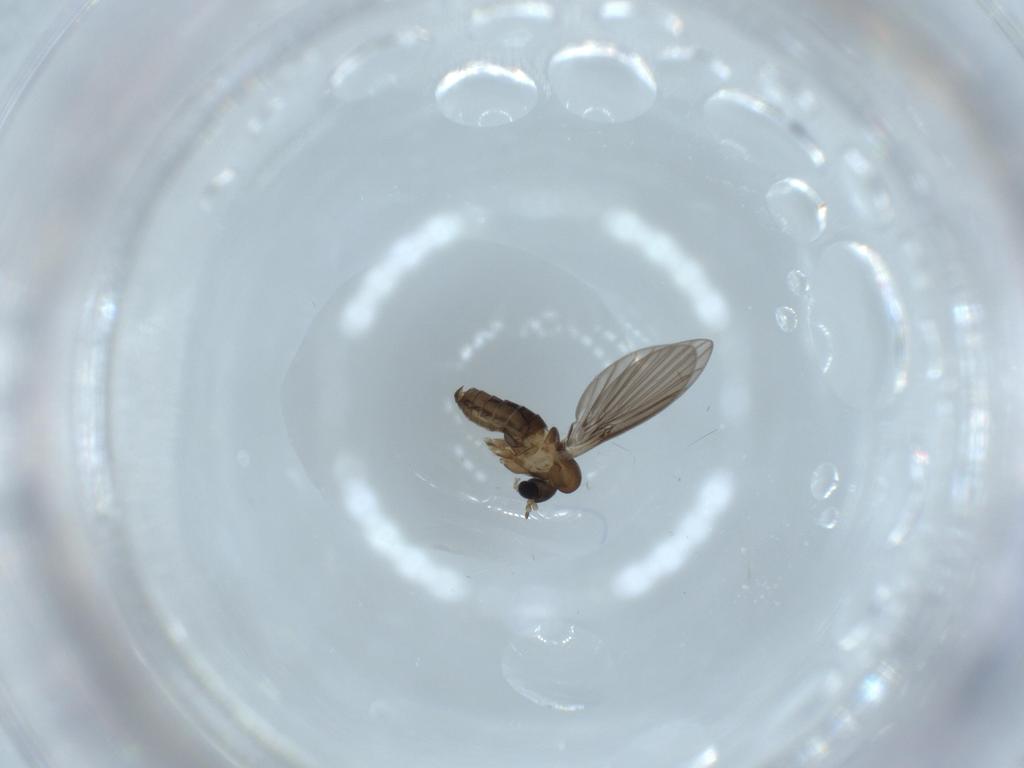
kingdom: Animalia
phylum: Arthropoda
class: Insecta
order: Diptera
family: Psychodidae
